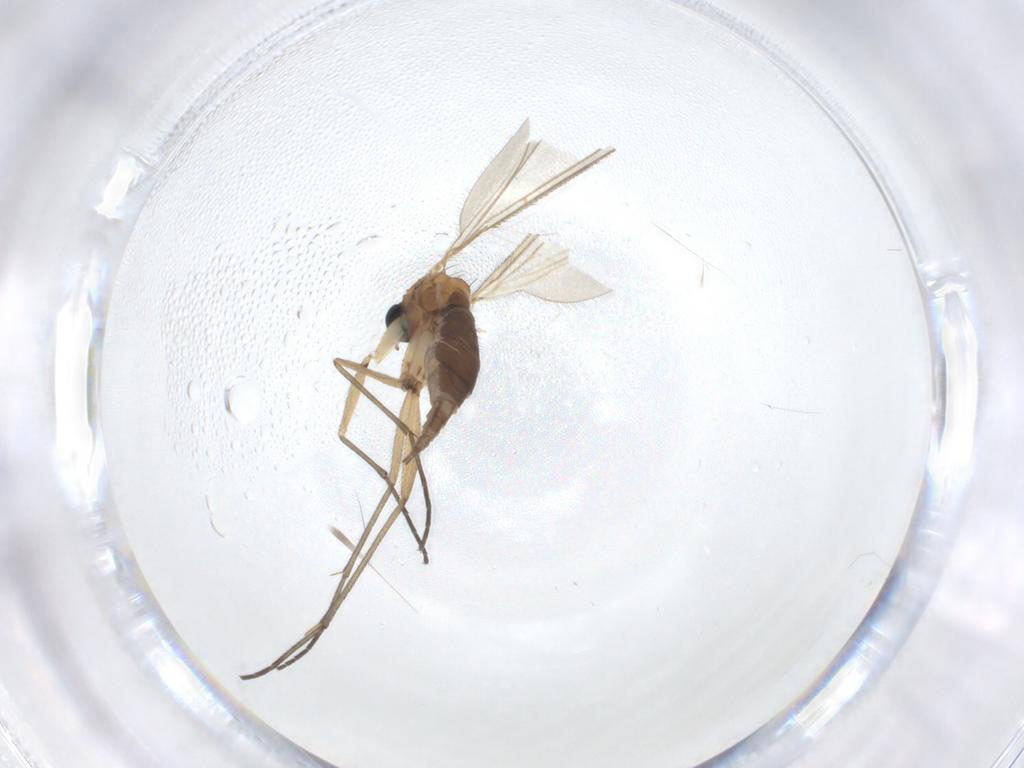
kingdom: Animalia
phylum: Arthropoda
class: Insecta
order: Diptera
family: Sciaridae
